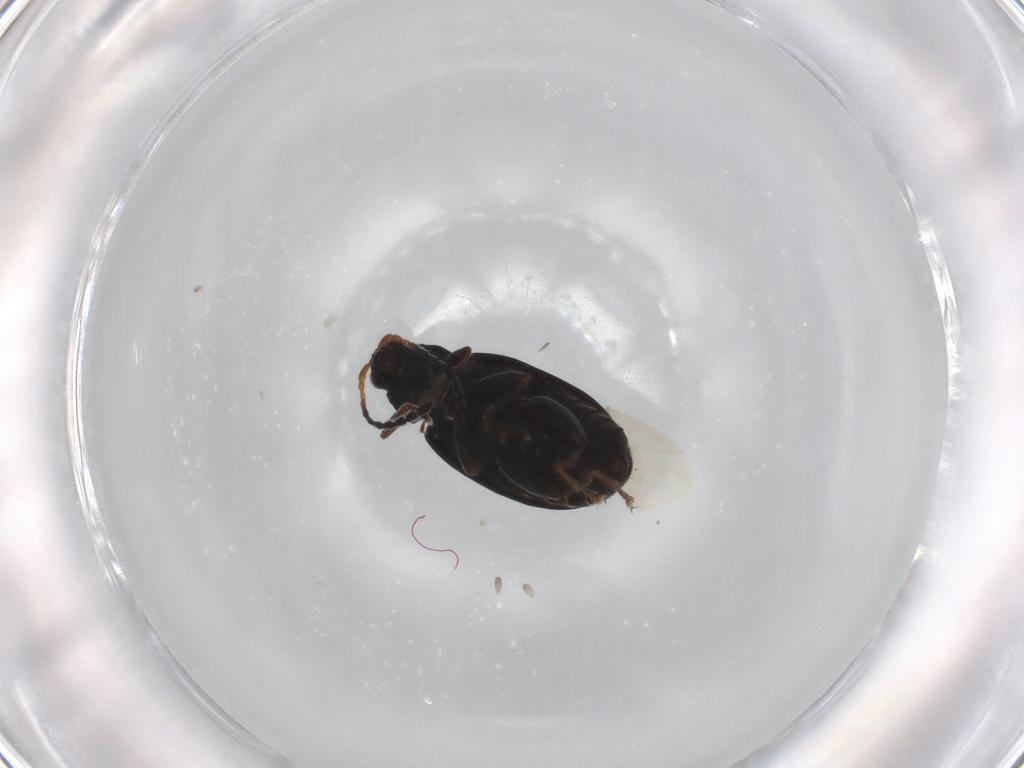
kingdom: Animalia
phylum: Arthropoda
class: Insecta
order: Coleoptera
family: Chrysomelidae
